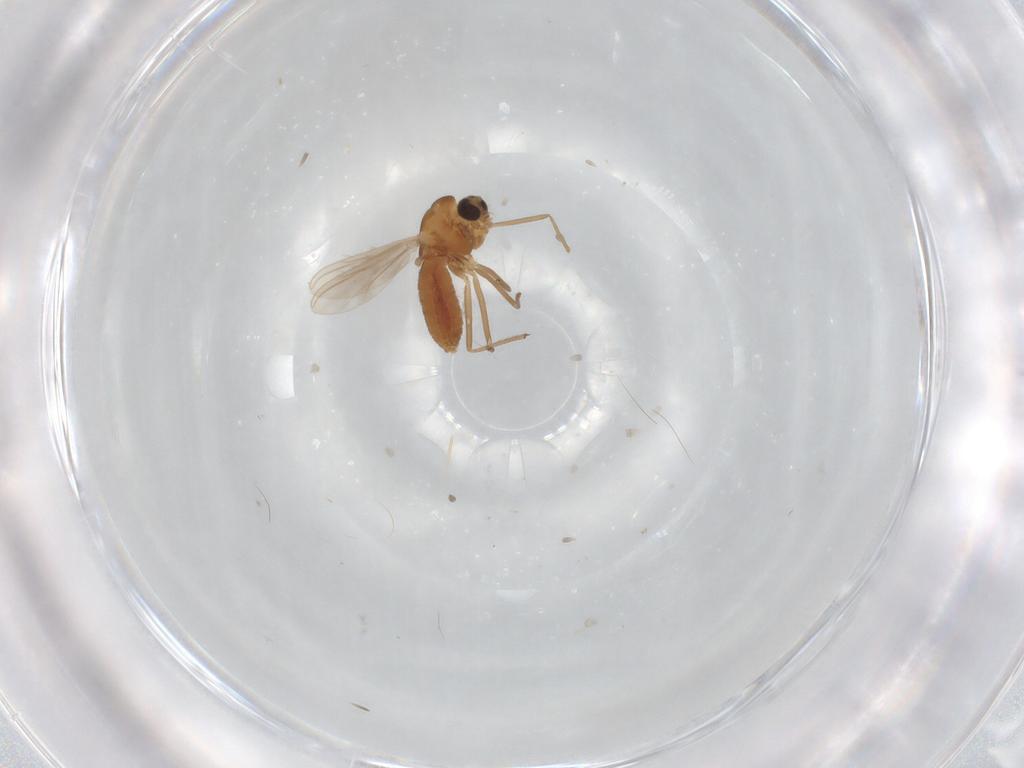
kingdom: Animalia
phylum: Arthropoda
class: Insecta
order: Diptera
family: Chironomidae
